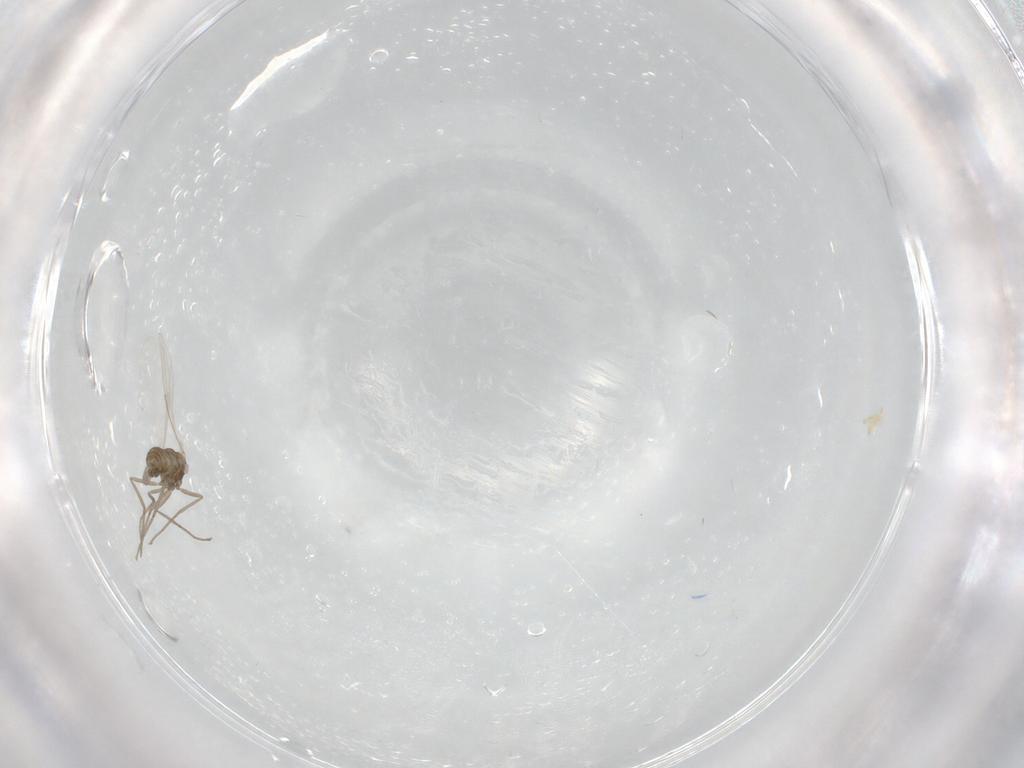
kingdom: Animalia
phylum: Arthropoda
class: Insecta
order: Diptera
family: Cecidomyiidae
